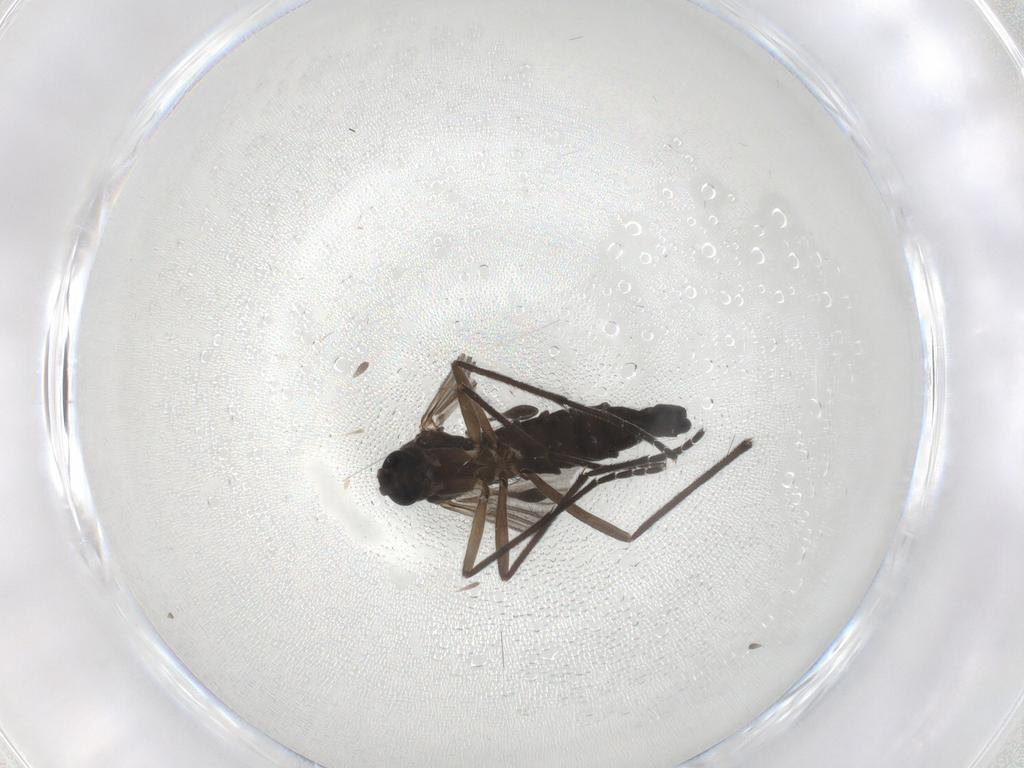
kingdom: Animalia
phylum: Arthropoda
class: Insecta
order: Diptera
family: Sciaridae
